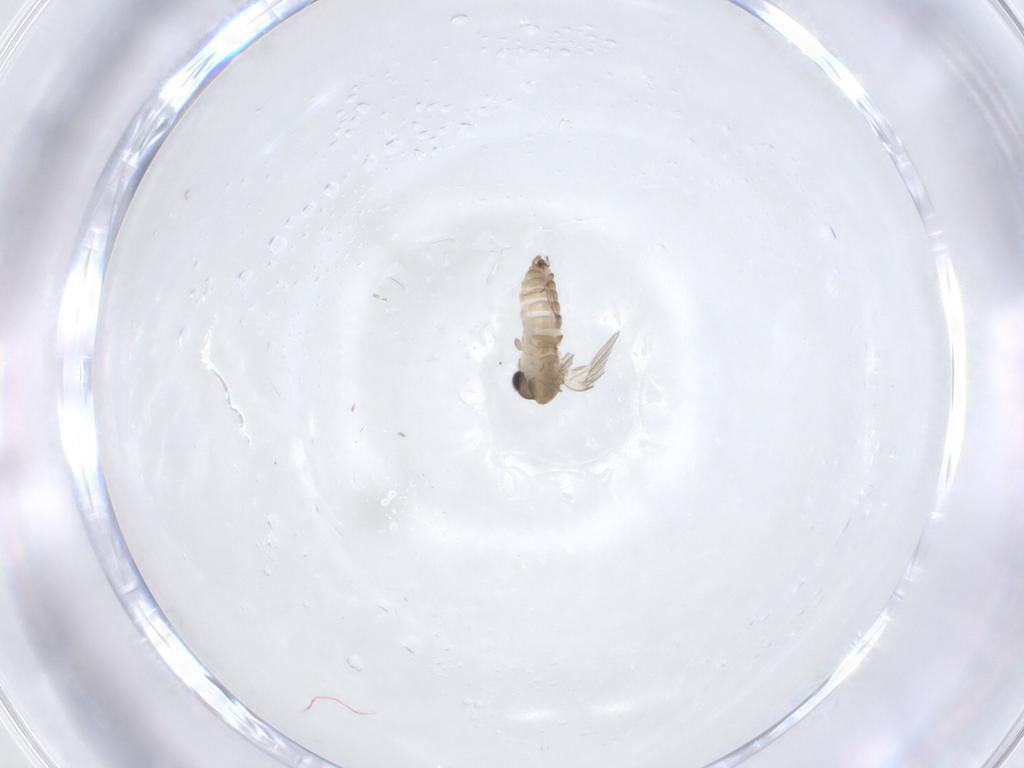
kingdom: Animalia
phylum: Arthropoda
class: Insecta
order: Diptera
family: Psychodidae
